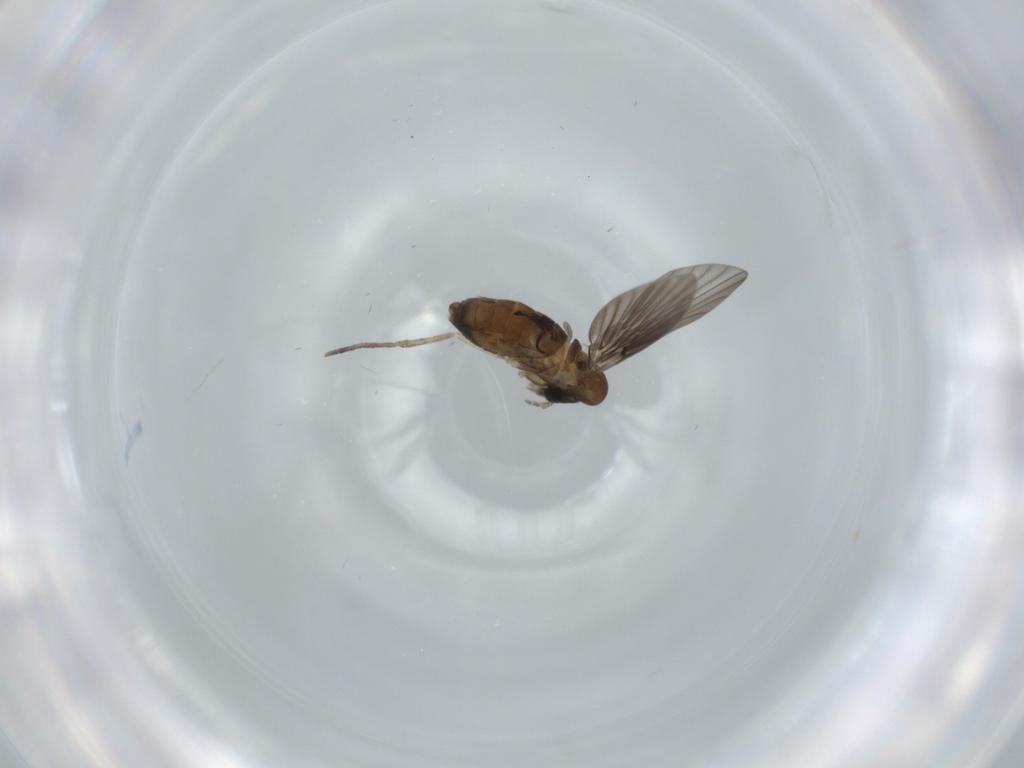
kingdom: Animalia
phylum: Arthropoda
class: Insecta
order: Diptera
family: Psychodidae
